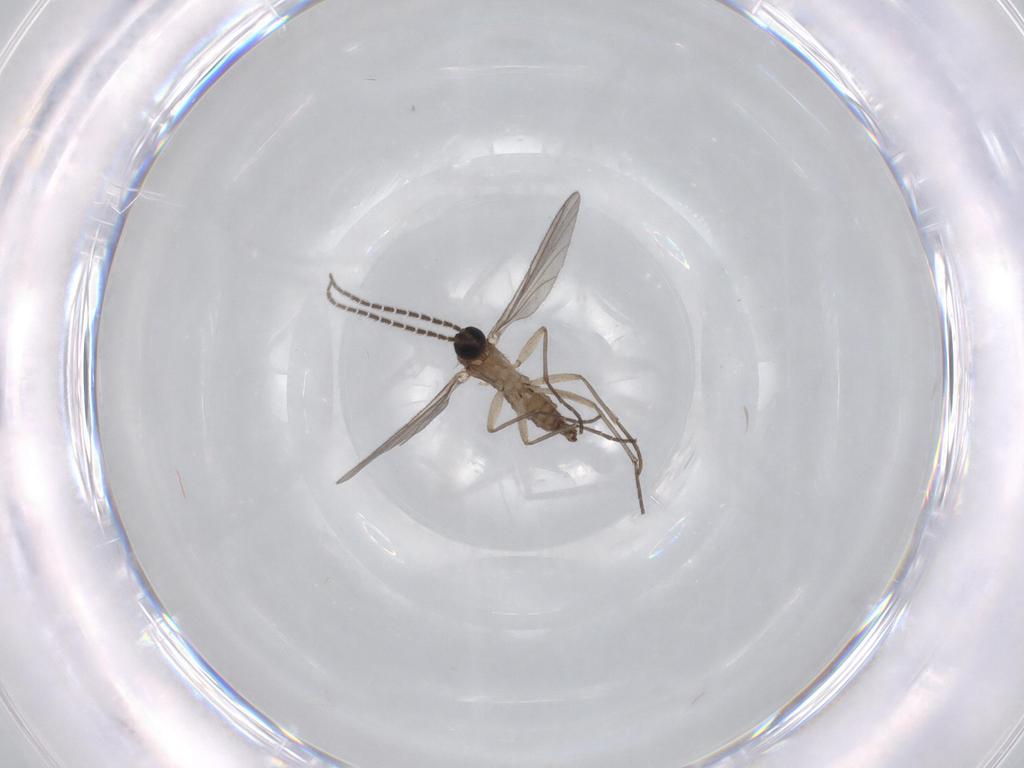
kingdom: Animalia
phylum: Arthropoda
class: Insecta
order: Diptera
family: Sciaridae
